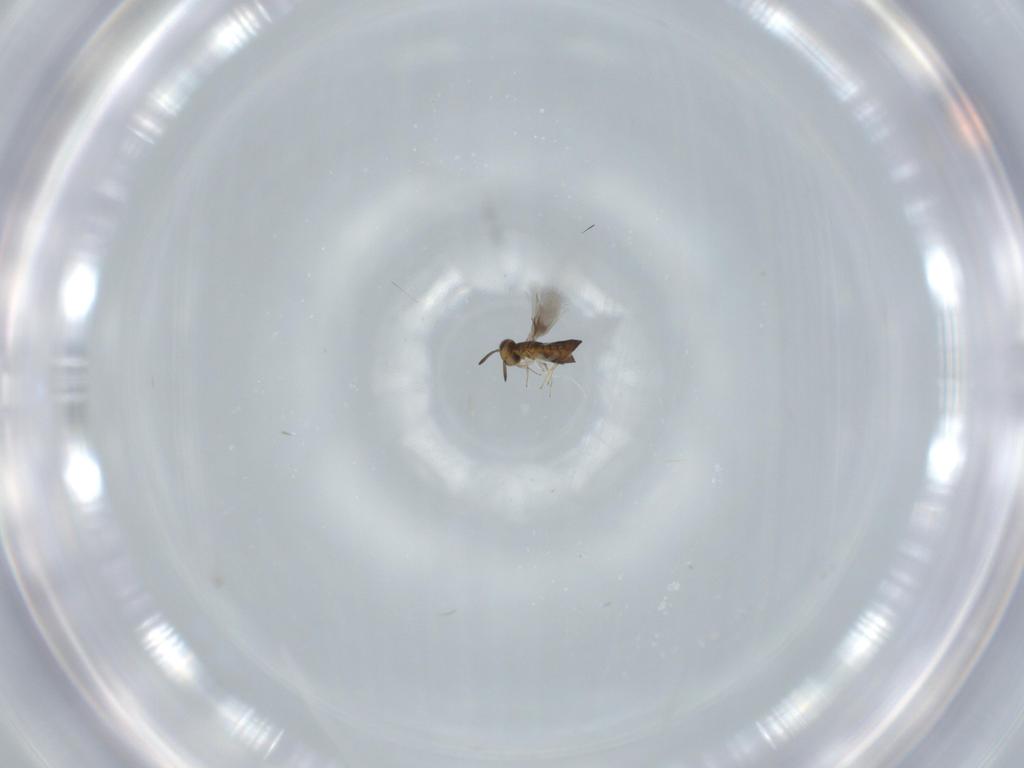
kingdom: Animalia
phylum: Arthropoda
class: Insecta
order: Hymenoptera
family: Signiphoridae
